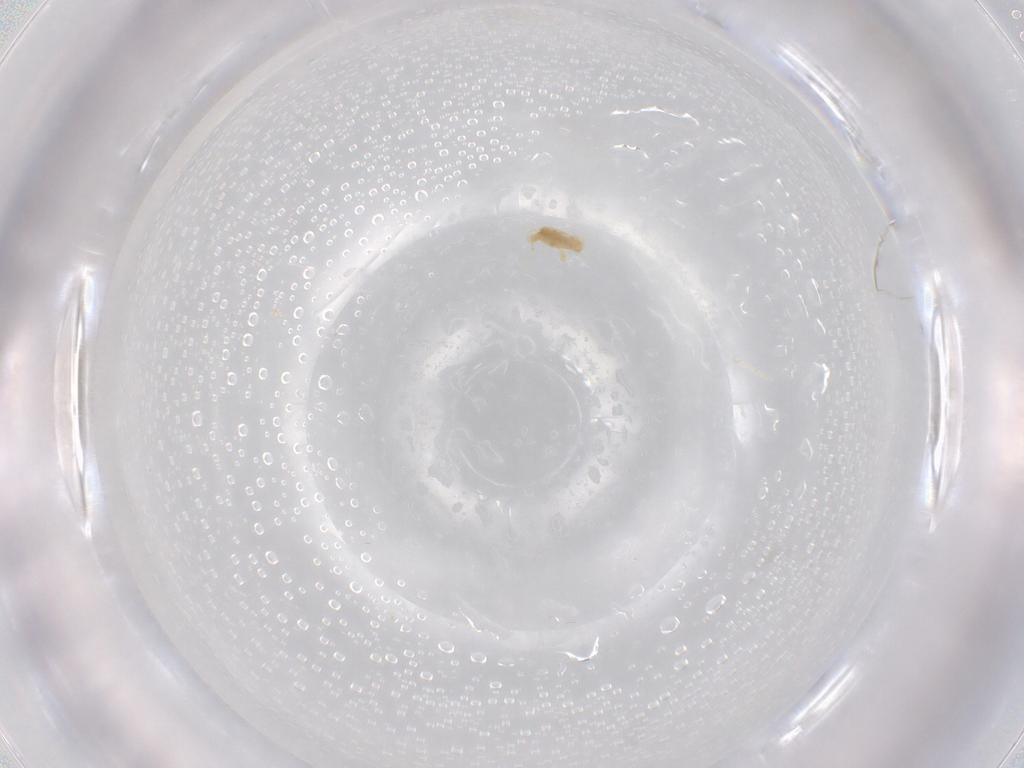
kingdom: Animalia
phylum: Arthropoda
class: Arachnida
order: Trombidiformes
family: Eupodidae
